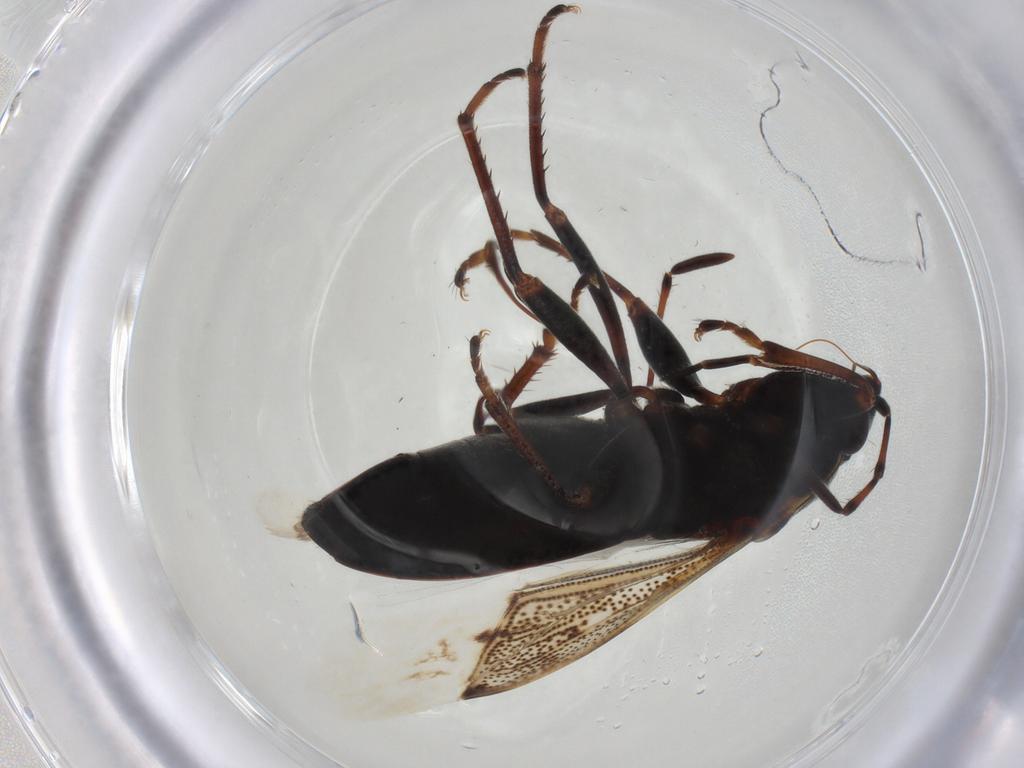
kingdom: Animalia
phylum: Arthropoda
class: Insecta
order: Hemiptera
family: Rhyparochromidae
